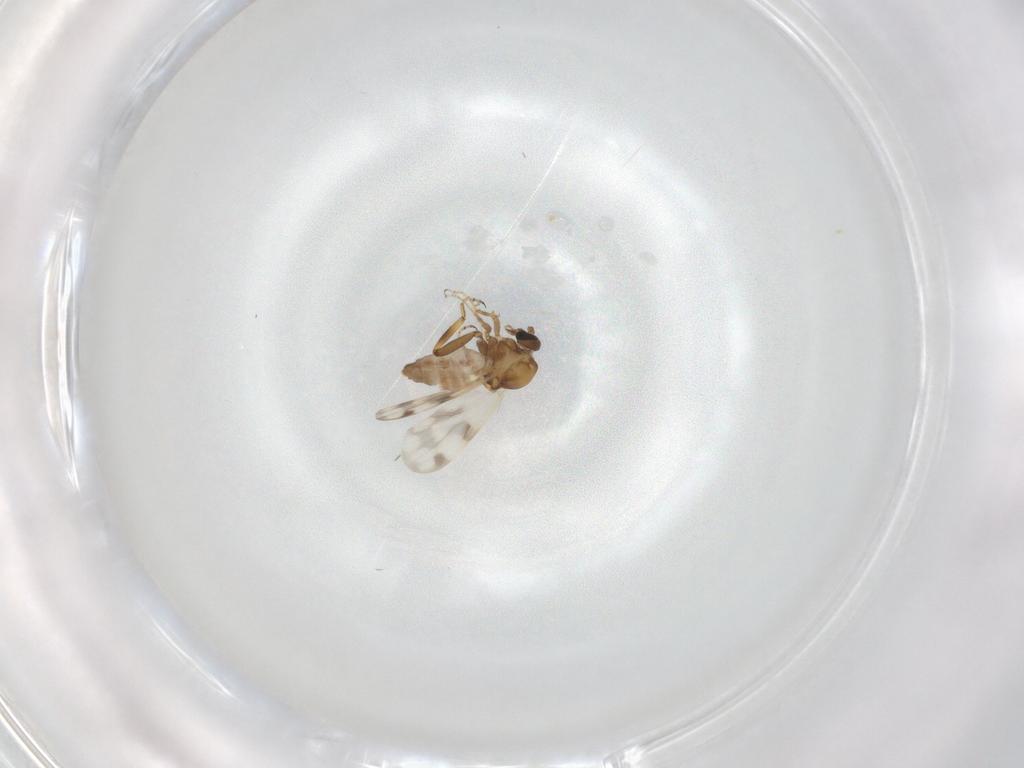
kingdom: Animalia
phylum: Arthropoda
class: Insecta
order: Diptera
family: Ceratopogonidae
